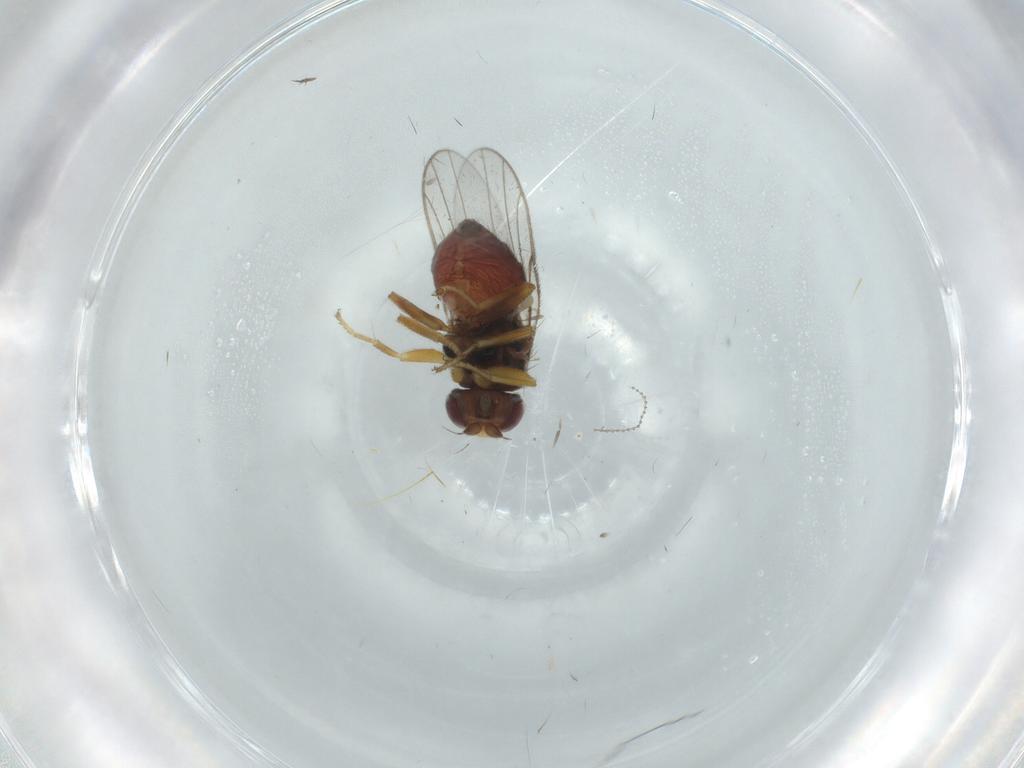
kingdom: Animalia
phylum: Arthropoda
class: Insecta
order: Diptera
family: Chloropidae
